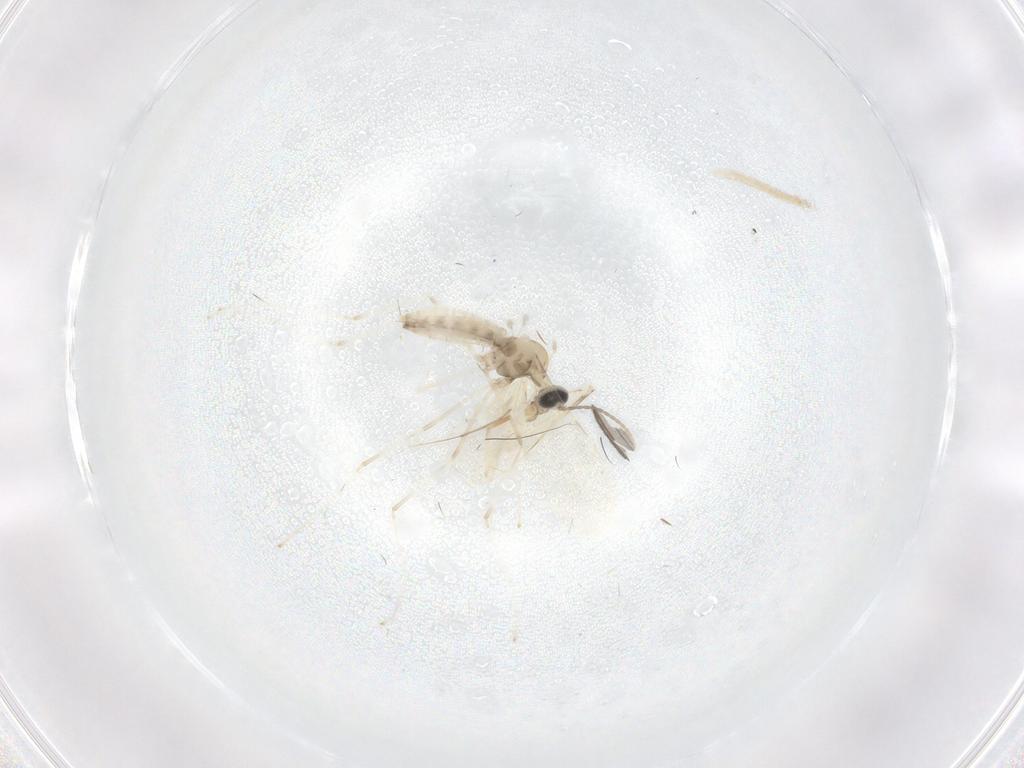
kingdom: Animalia
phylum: Arthropoda
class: Insecta
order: Diptera
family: Cecidomyiidae
